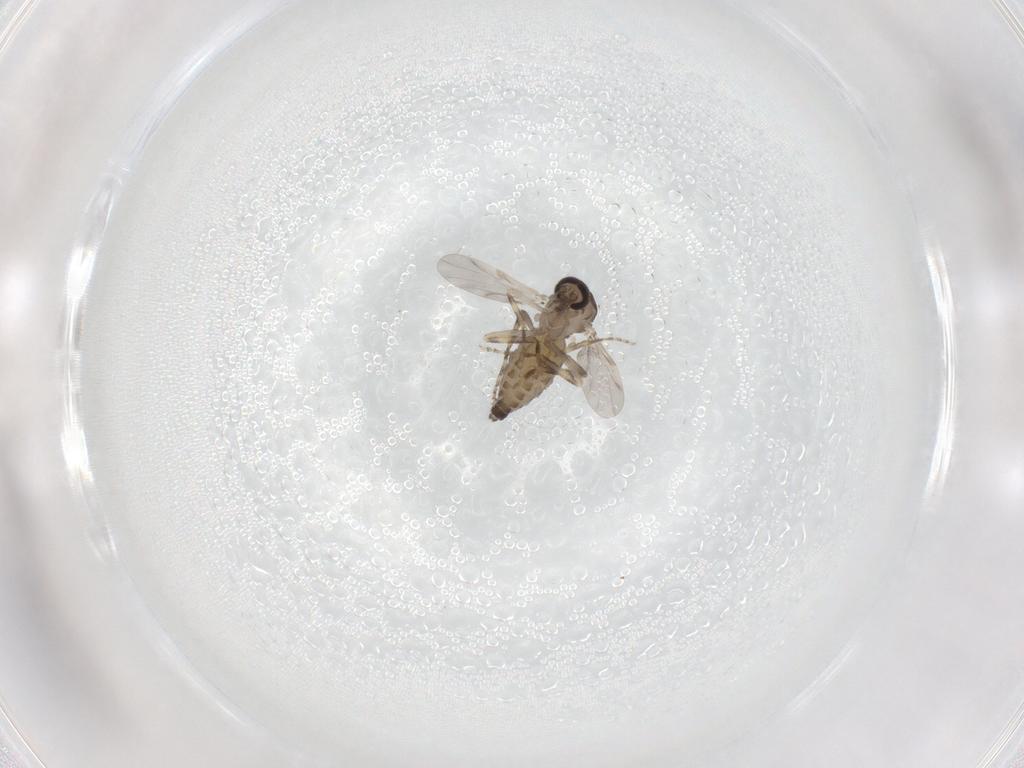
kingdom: Animalia
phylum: Arthropoda
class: Insecta
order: Diptera
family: Ceratopogonidae
